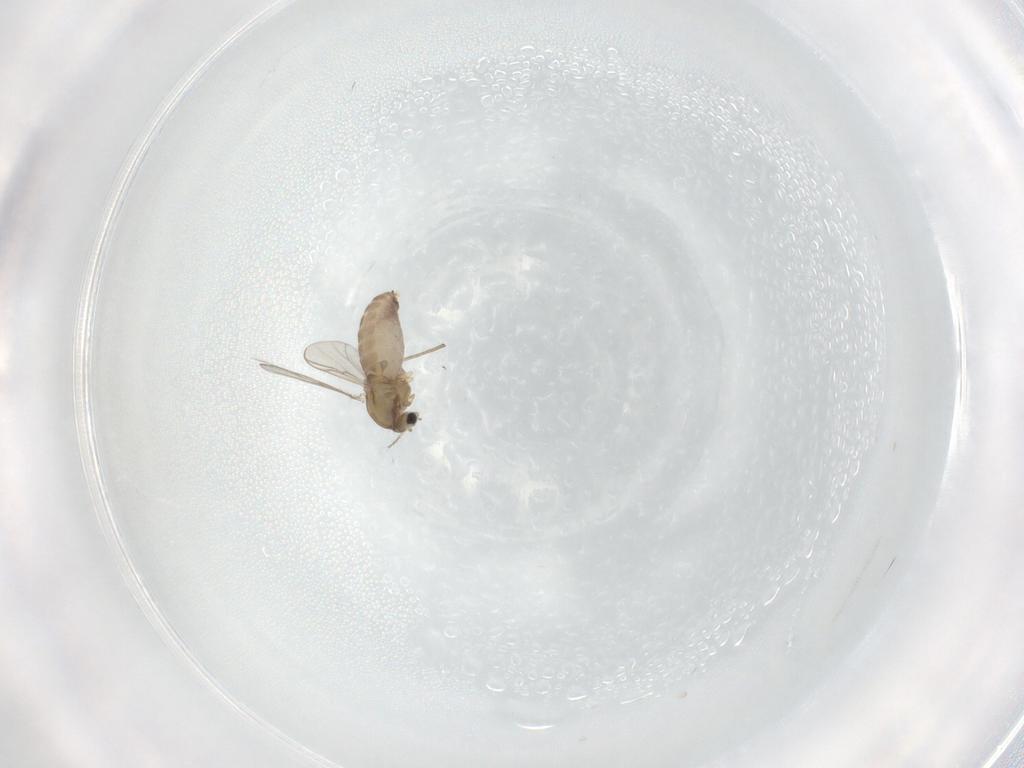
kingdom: Animalia
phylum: Arthropoda
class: Insecta
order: Diptera
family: Chironomidae
